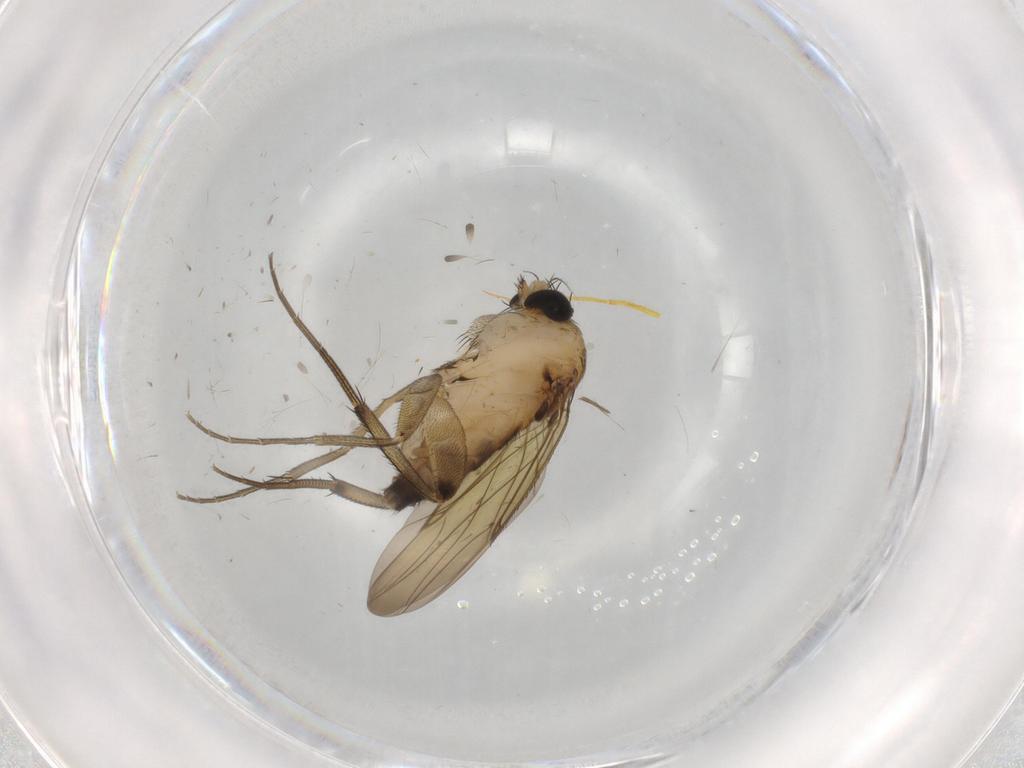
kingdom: Animalia
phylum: Arthropoda
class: Insecta
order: Diptera
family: Phoridae
